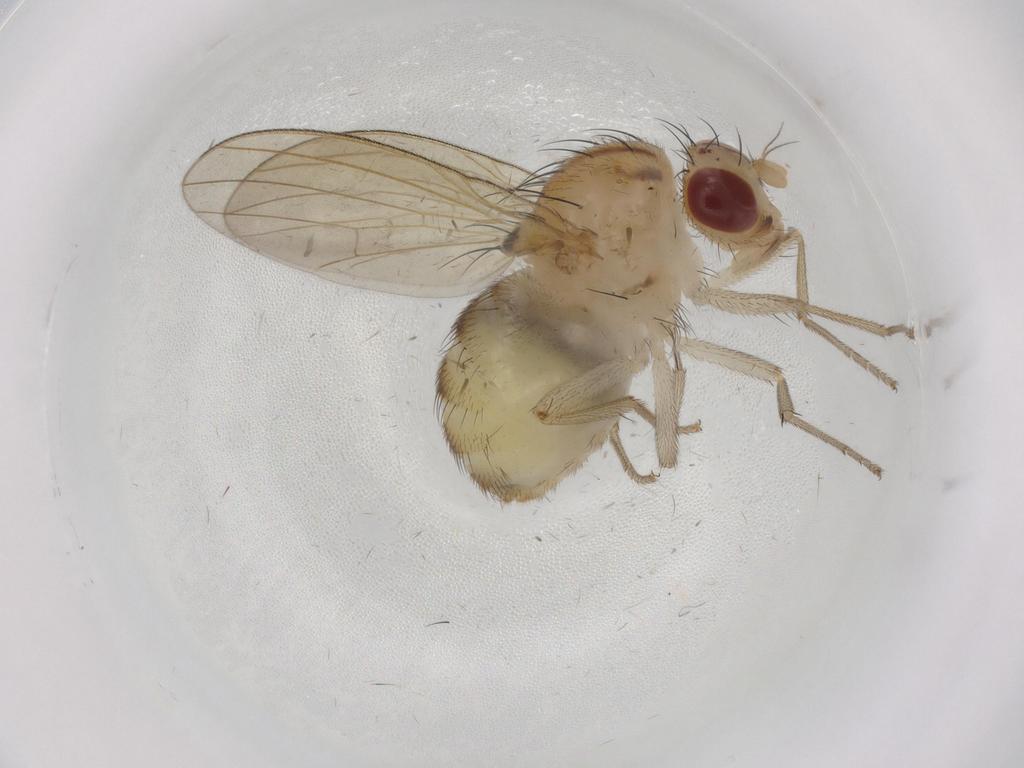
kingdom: Animalia
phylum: Arthropoda
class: Insecta
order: Diptera
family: Lauxaniidae
